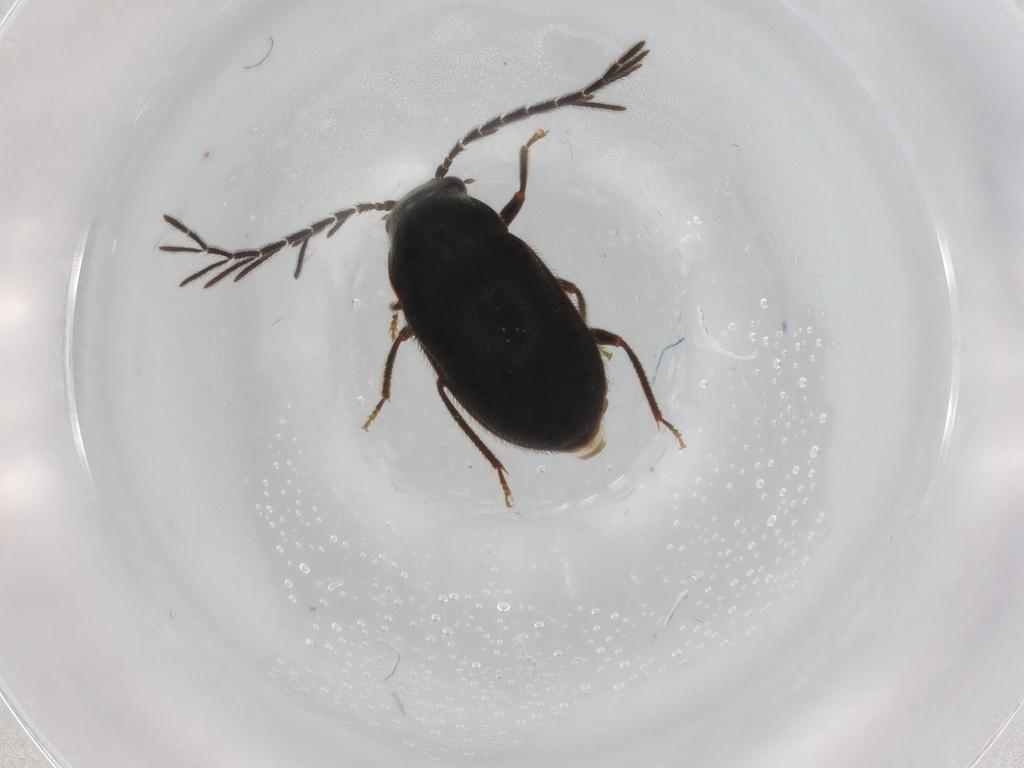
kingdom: Animalia
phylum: Arthropoda
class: Insecta
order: Coleoptera
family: Ptilodactylidae
